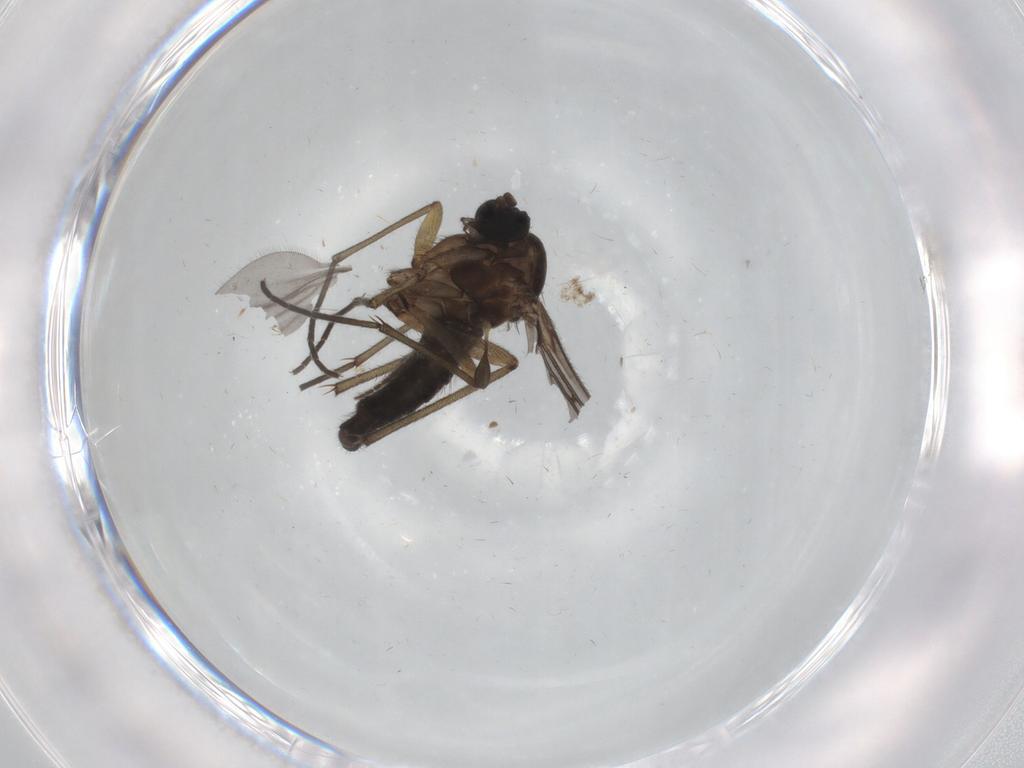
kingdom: Animalia
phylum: Arthropoda
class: Insecta
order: Diptera
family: Sciaridae
